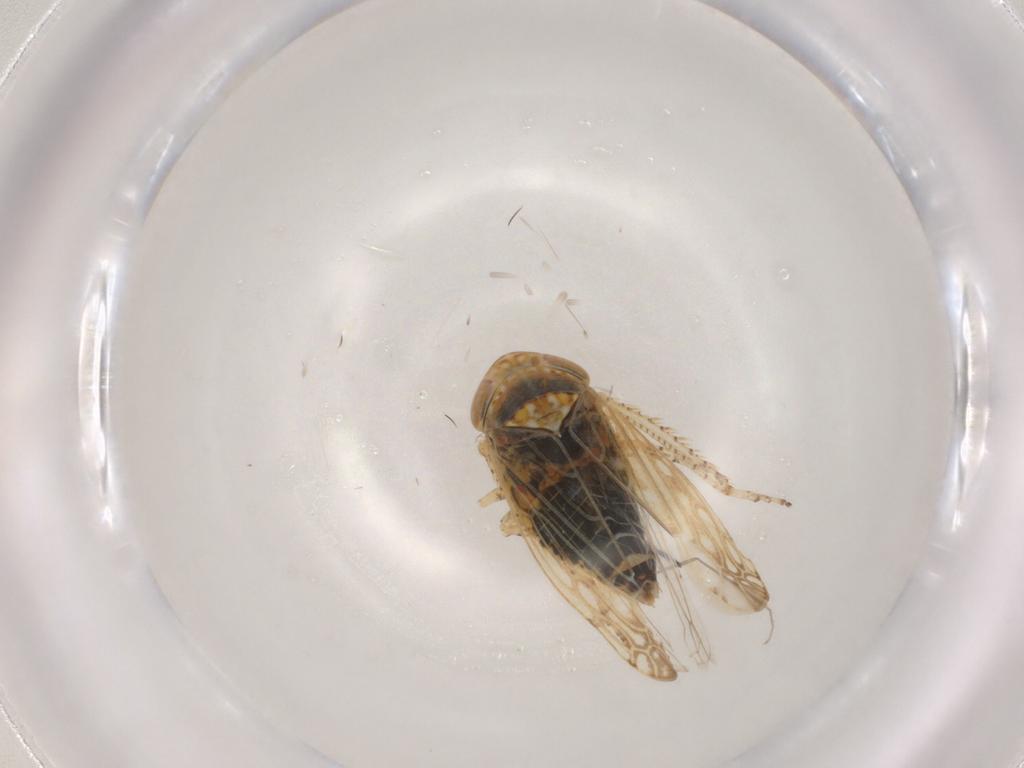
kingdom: Animalia
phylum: Arthropoda
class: Insecta
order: Hemiptera
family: Cicadellidae
